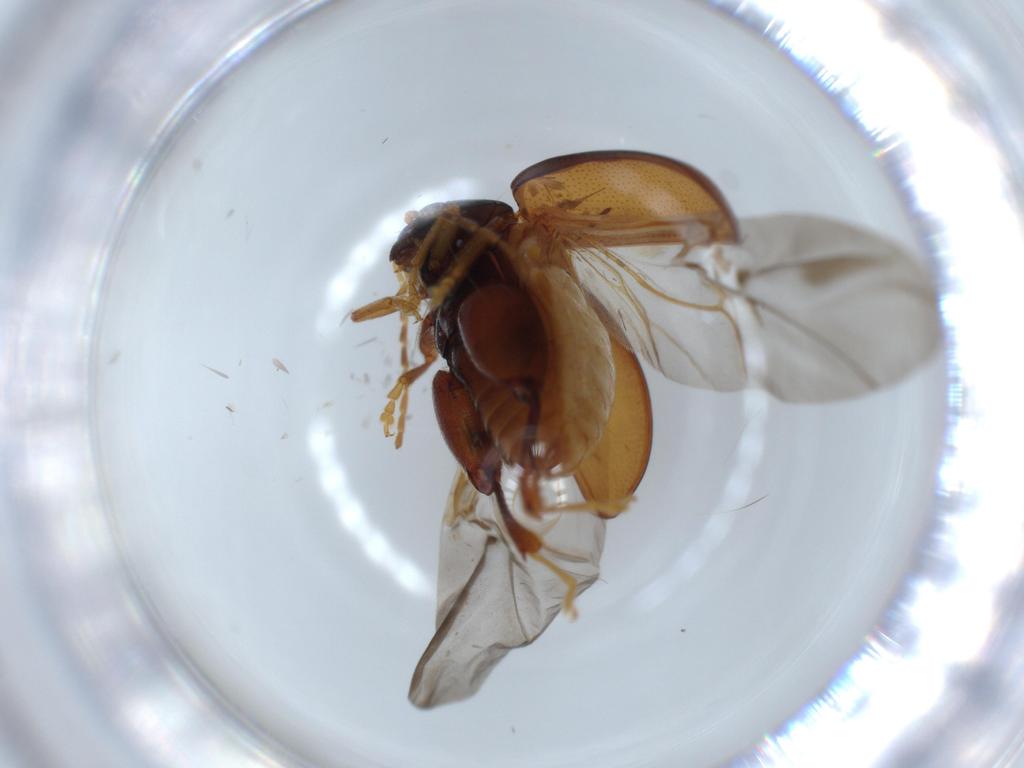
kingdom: Animalia
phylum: Arthropoda
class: Insecta
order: Coleoptera
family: Chrysomelidae
